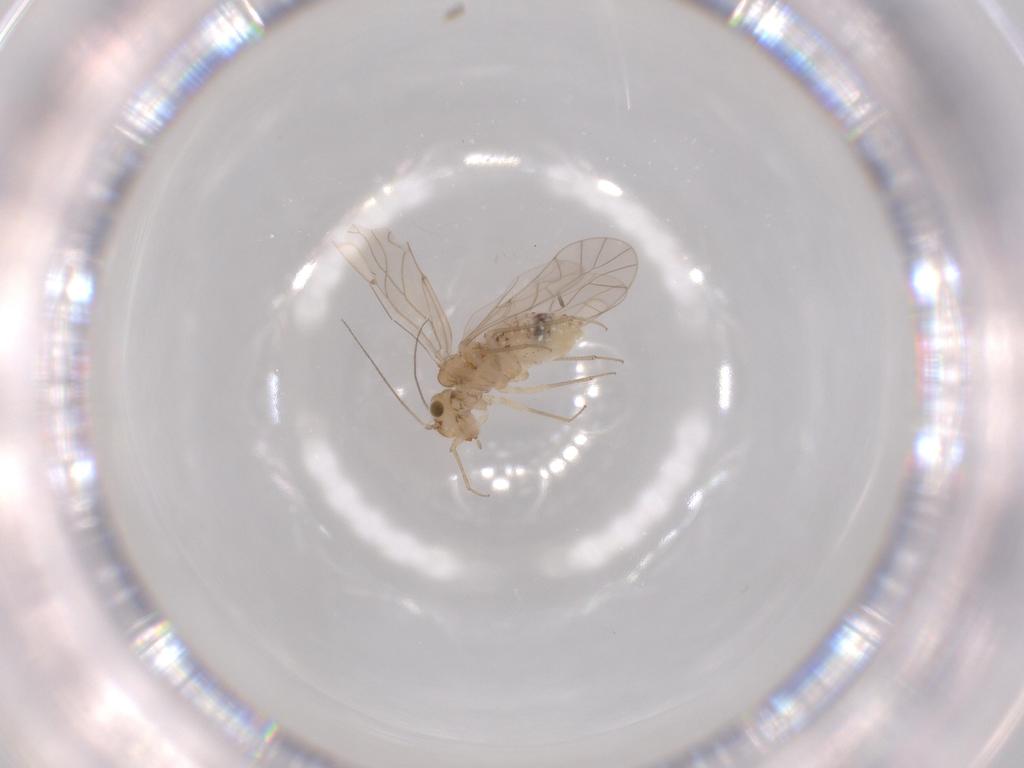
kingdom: Animalia
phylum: Arthropoda
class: Insecta
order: Psocodea
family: Lachesillidae
